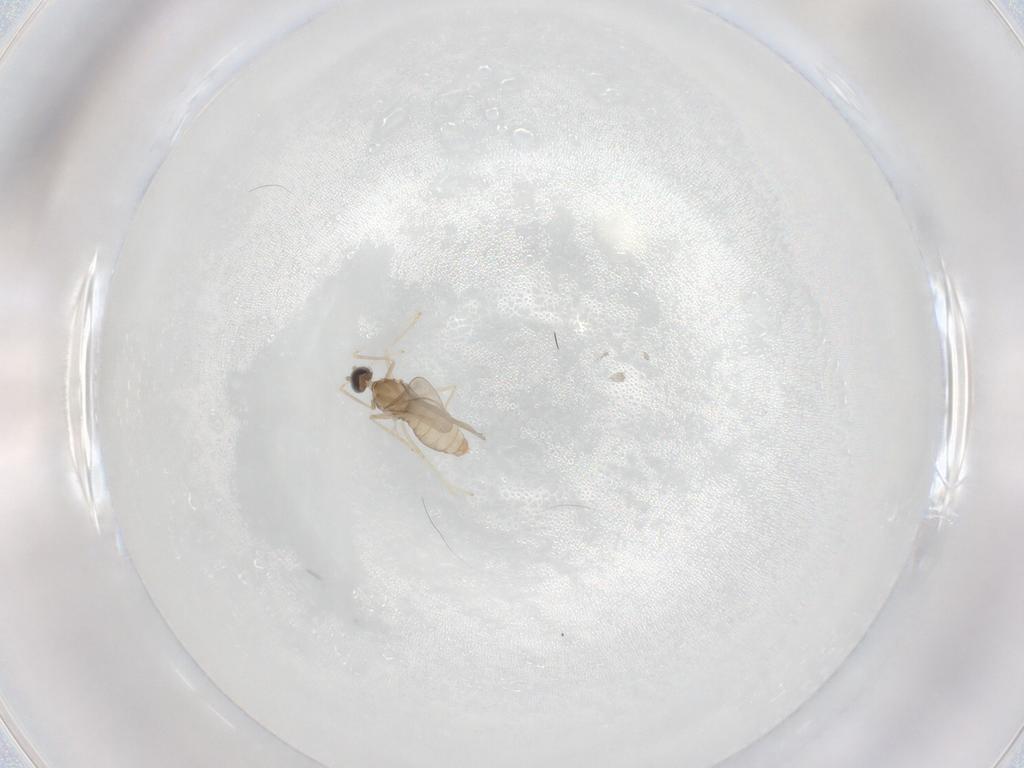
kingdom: Animalia
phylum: Arthropoda
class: Insecta
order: Diptera
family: Cecidomyiidae
